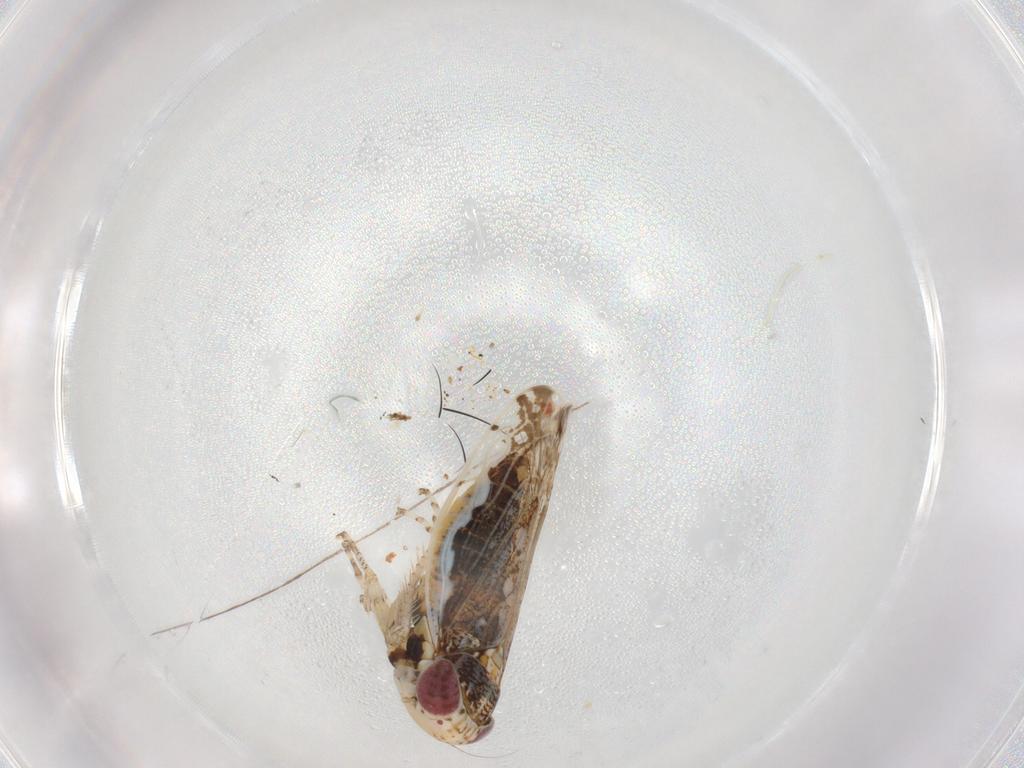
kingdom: Animalia
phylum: Arthropoda
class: Insecta
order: Hemiptera
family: Cicadellidae
